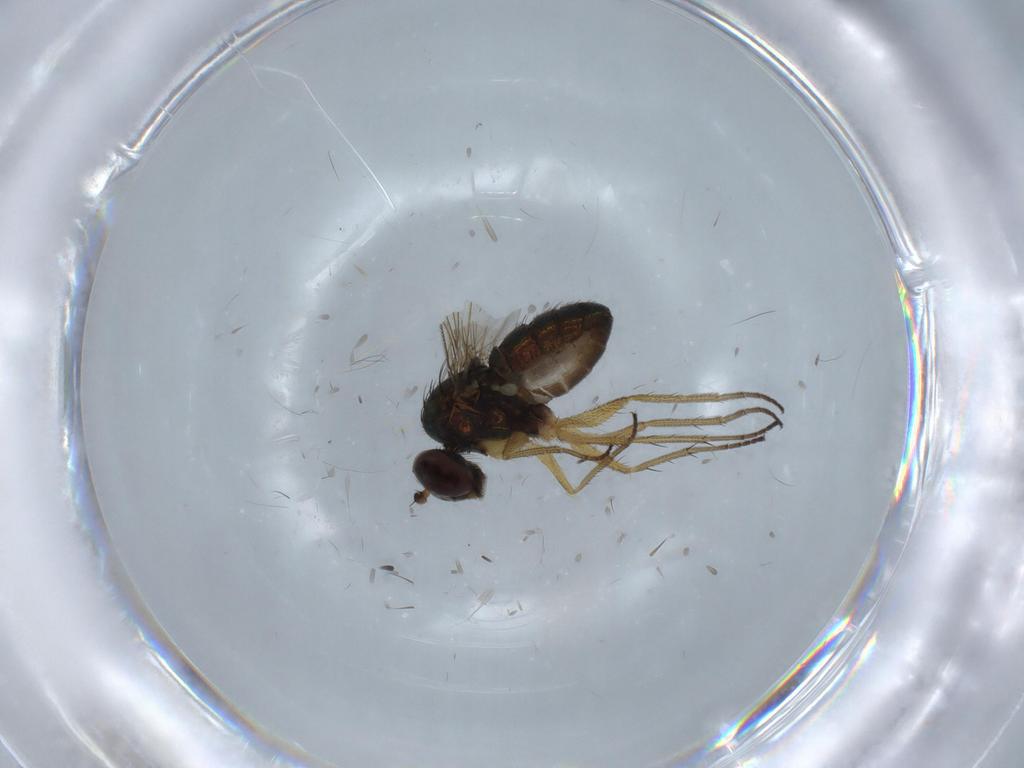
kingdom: Animalia
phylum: Arthropoda
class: Insecta
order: Diptera
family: Dolichopodidae
